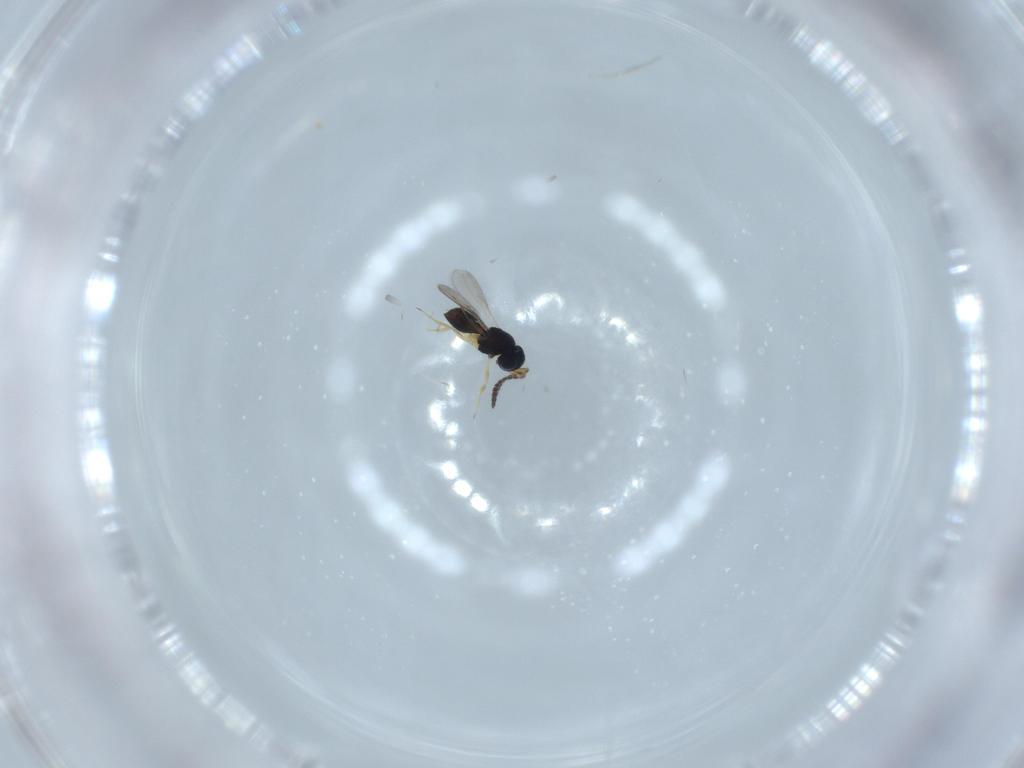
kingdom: Animalia
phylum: Arthropoda
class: Insecta
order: Hymenoptera
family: Scelionidae
